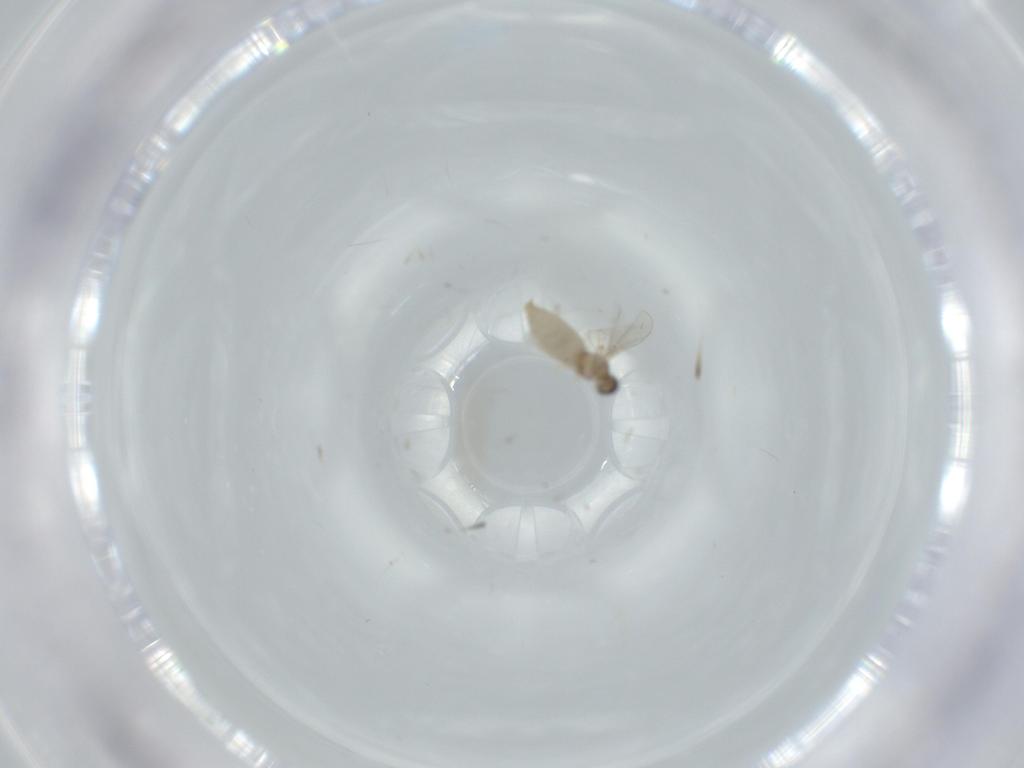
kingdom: Animalia
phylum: Arthropoda
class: Insecta
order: Diptera
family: Cecidomyiidae
